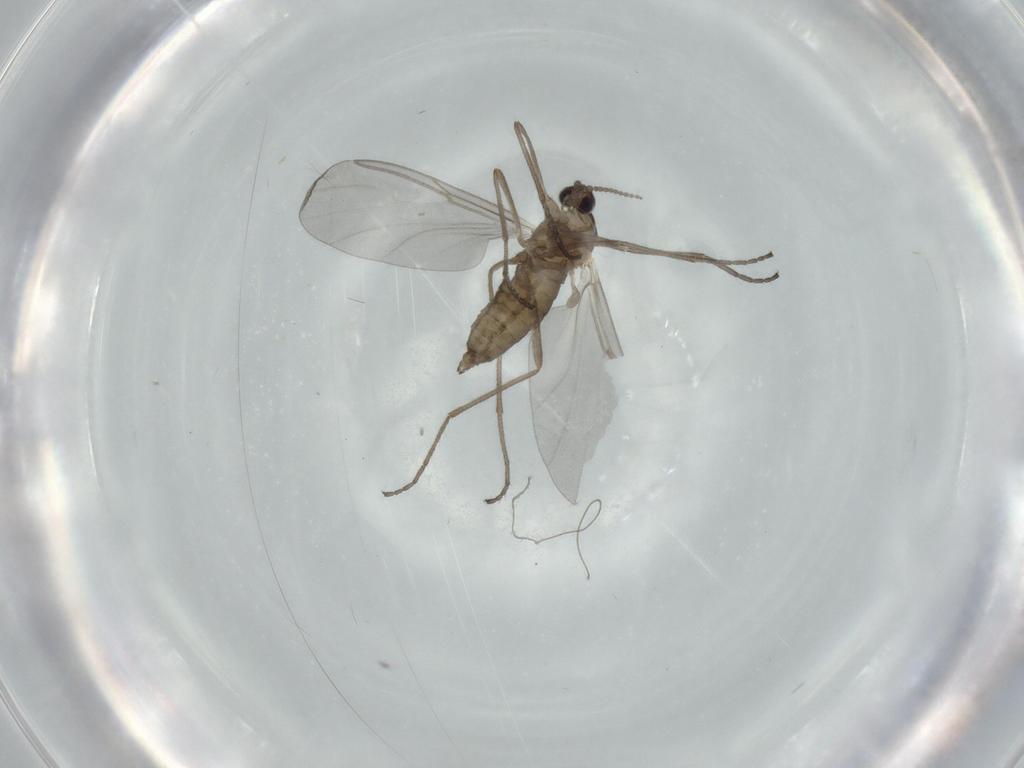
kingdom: Animalia
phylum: Arthropoda
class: Insecta
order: Diptera
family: Cecidomyiidae
